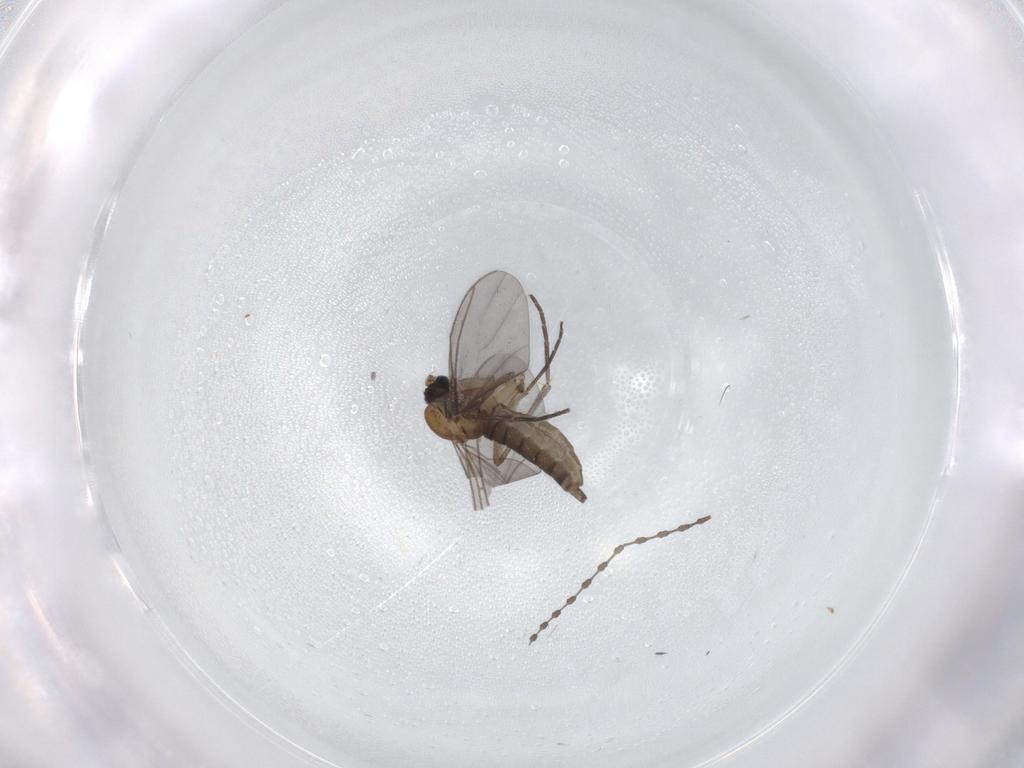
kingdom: Animalia
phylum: Arthropoda
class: Insecta
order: Diptera
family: Sciaridae
